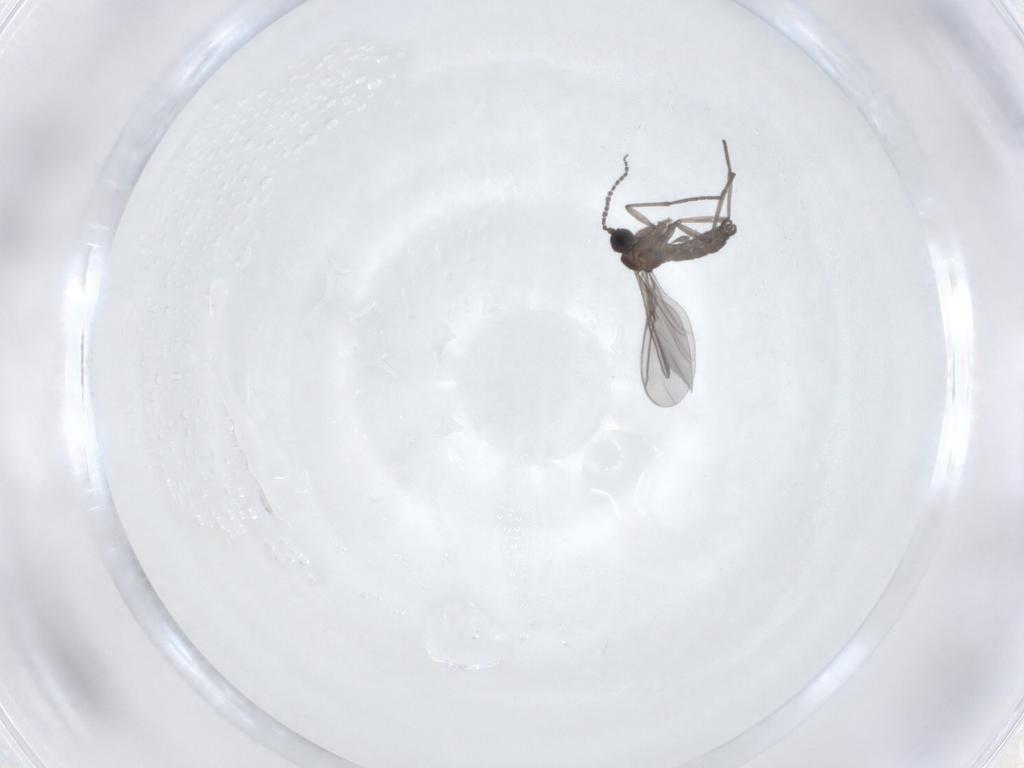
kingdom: Animalia
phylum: Arthropoda
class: Insecta
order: Diptera
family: Sciaridae
